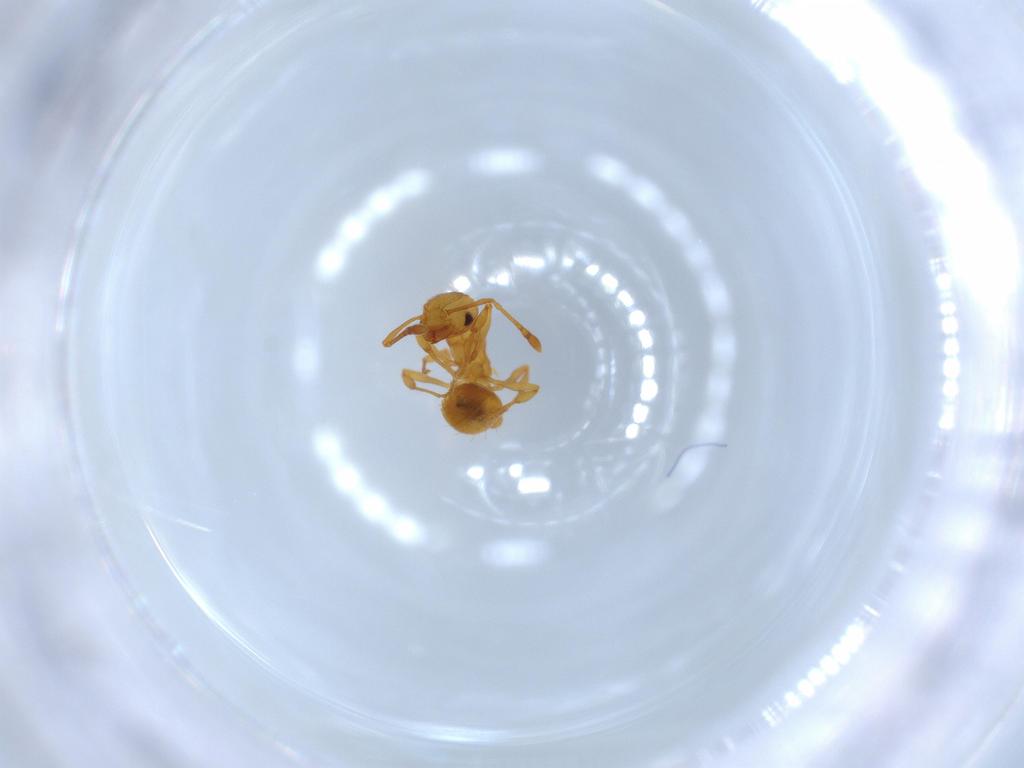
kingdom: Animalia
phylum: Arthropoda
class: Insecta
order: Hymenoptera
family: Formicidae
